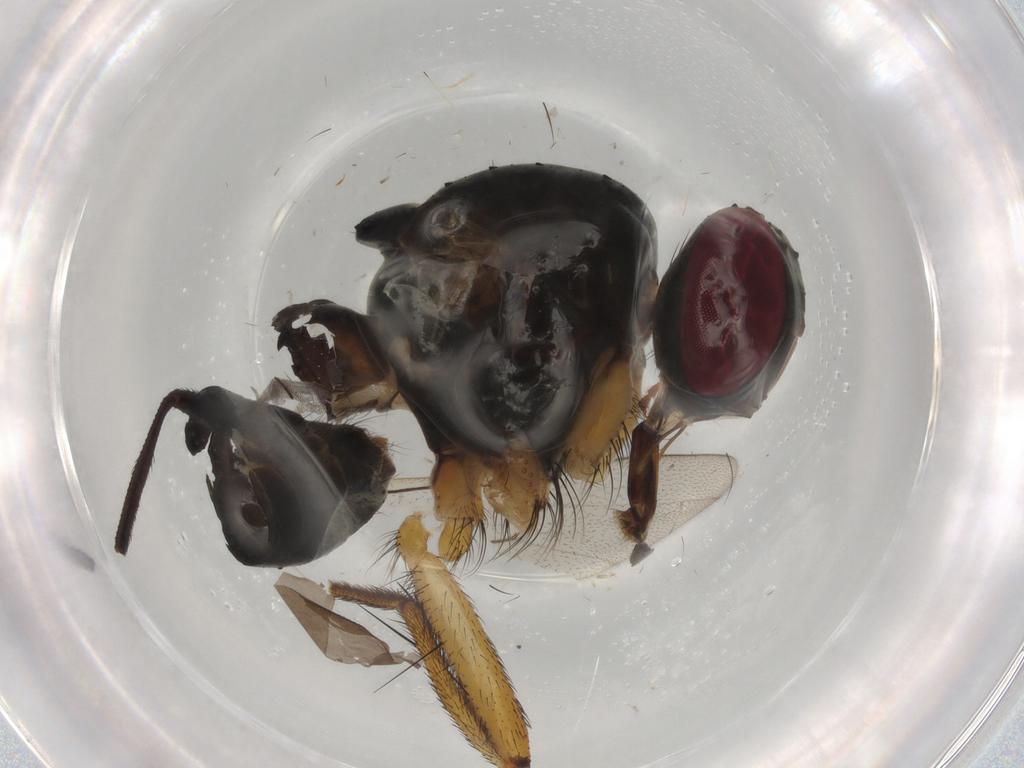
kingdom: Animalia
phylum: Arthropoda
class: Insecta
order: Diptera
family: Muscidae
